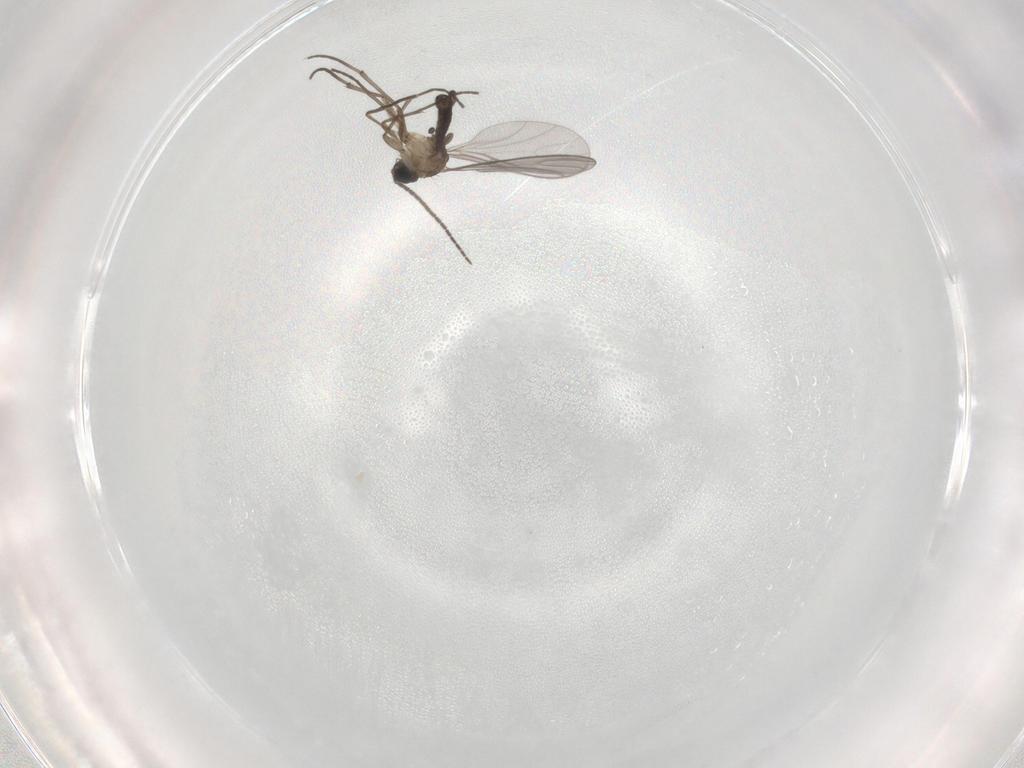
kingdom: Animalia
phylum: Arthropoda
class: Insecta
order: Diptera
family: Sciaridae
